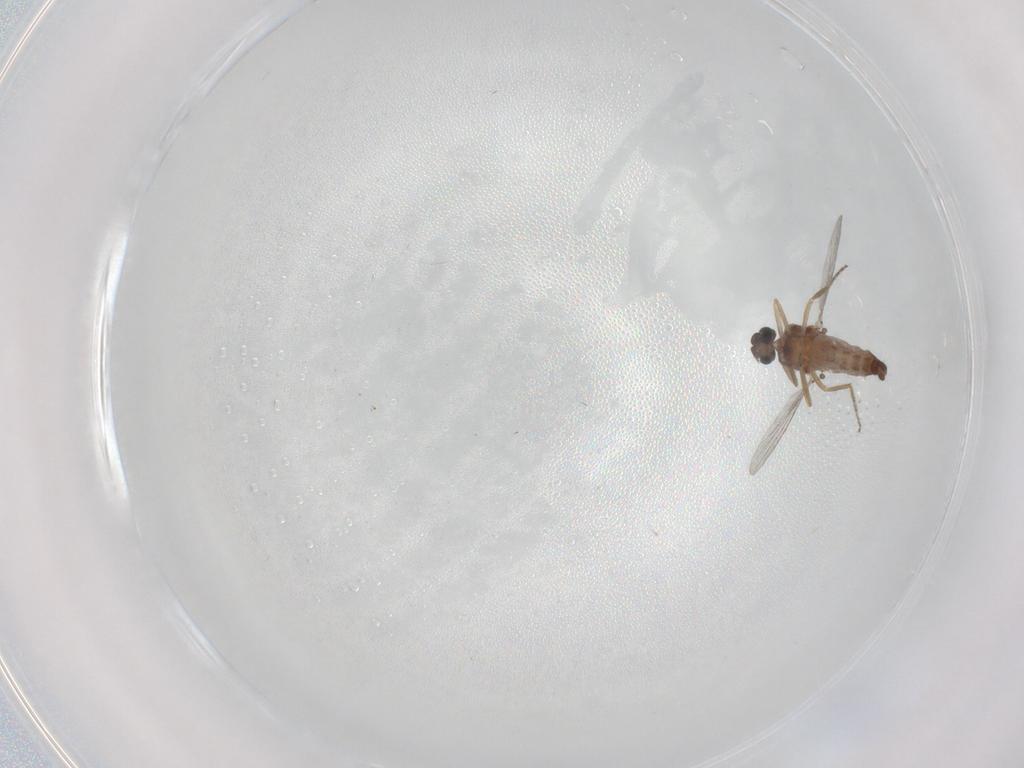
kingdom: Animalia
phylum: Arthropoda
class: Insecta
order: Diptera
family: Ceratopogonidae
